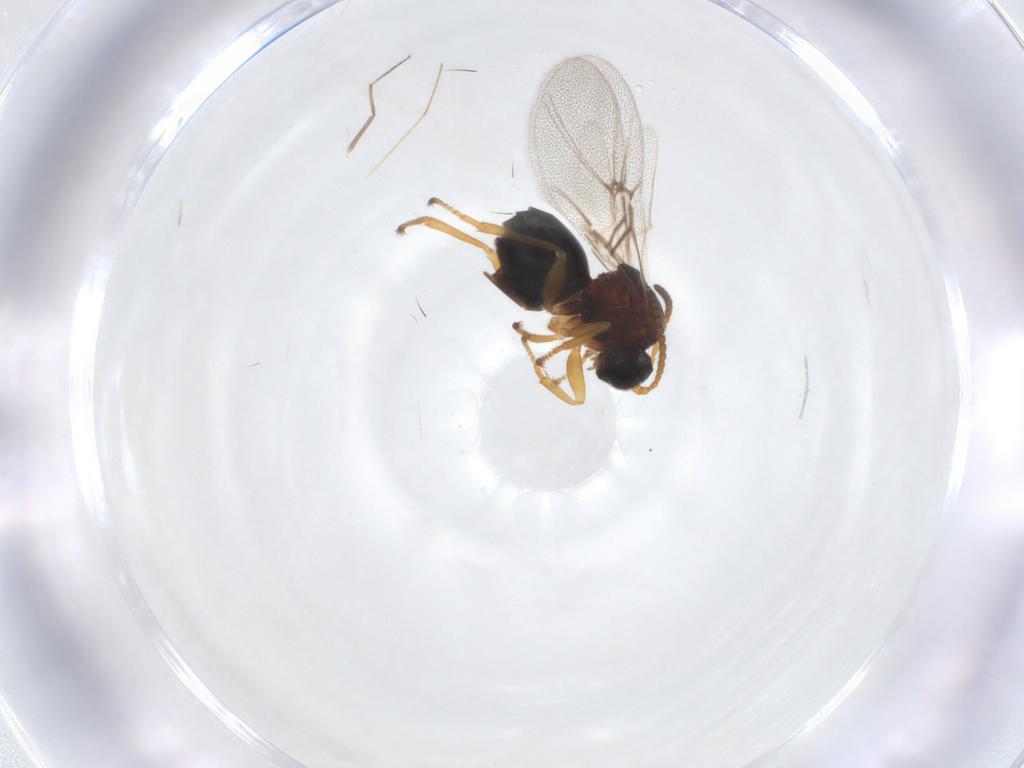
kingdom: Animalia
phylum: Arthropoda
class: Insecta
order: Hymenoptera
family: Cynipidae
